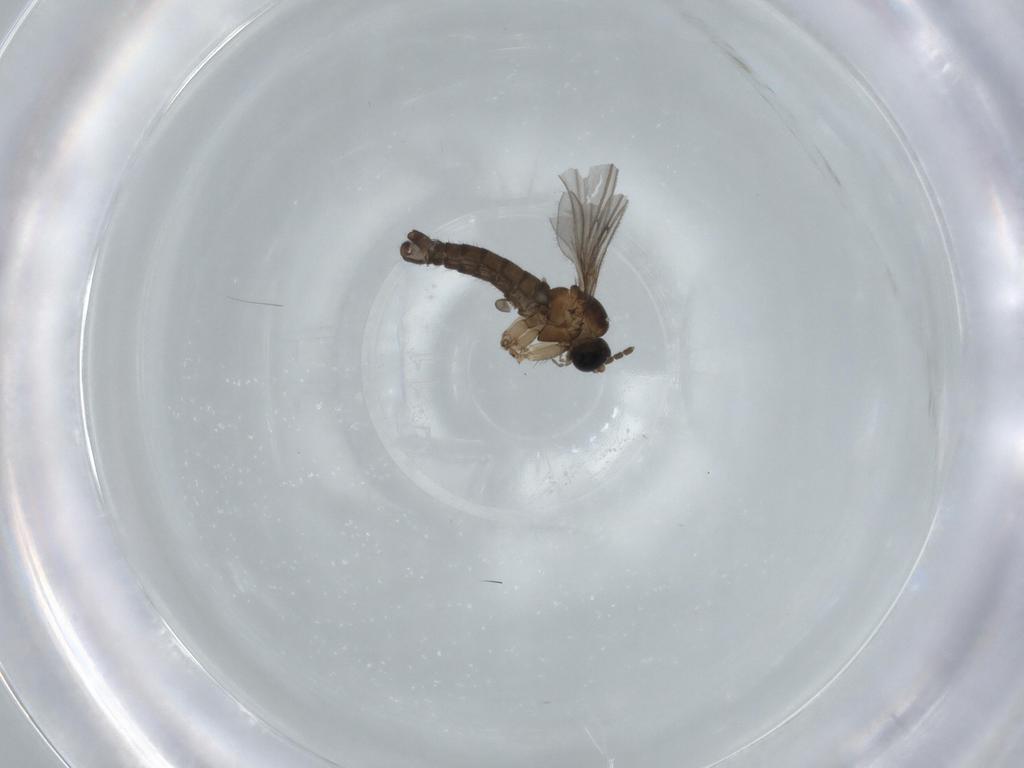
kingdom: Animalia
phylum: Arthropoda
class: Insecta
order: Diptera
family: Sciaridae
